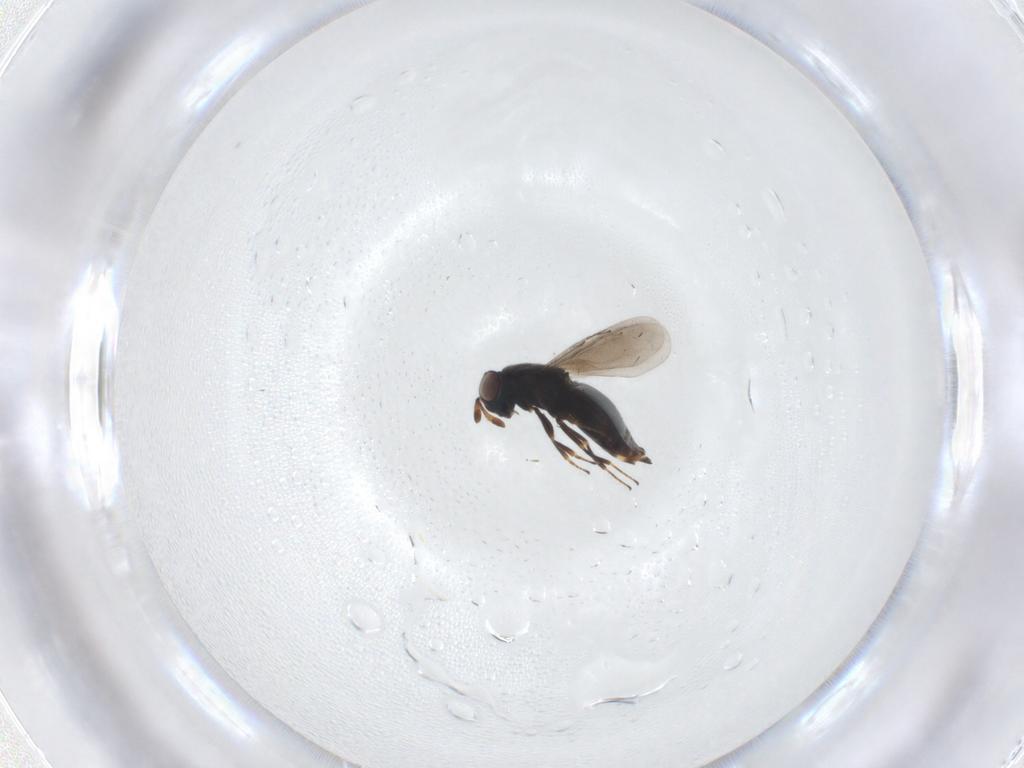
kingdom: Animalia
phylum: Arthropoda
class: Insecta
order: Hymenoptera
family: Eunotidae
